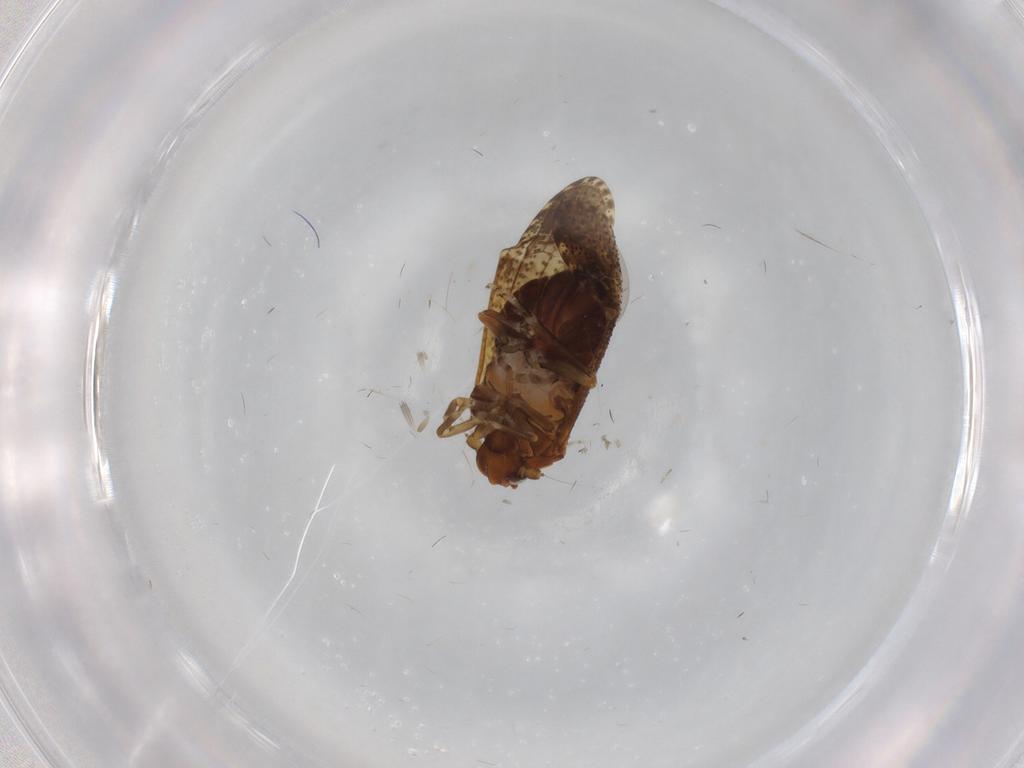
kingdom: Animalia
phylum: Arthropoda
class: Insecta
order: Hemiptera
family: Delphacidae
